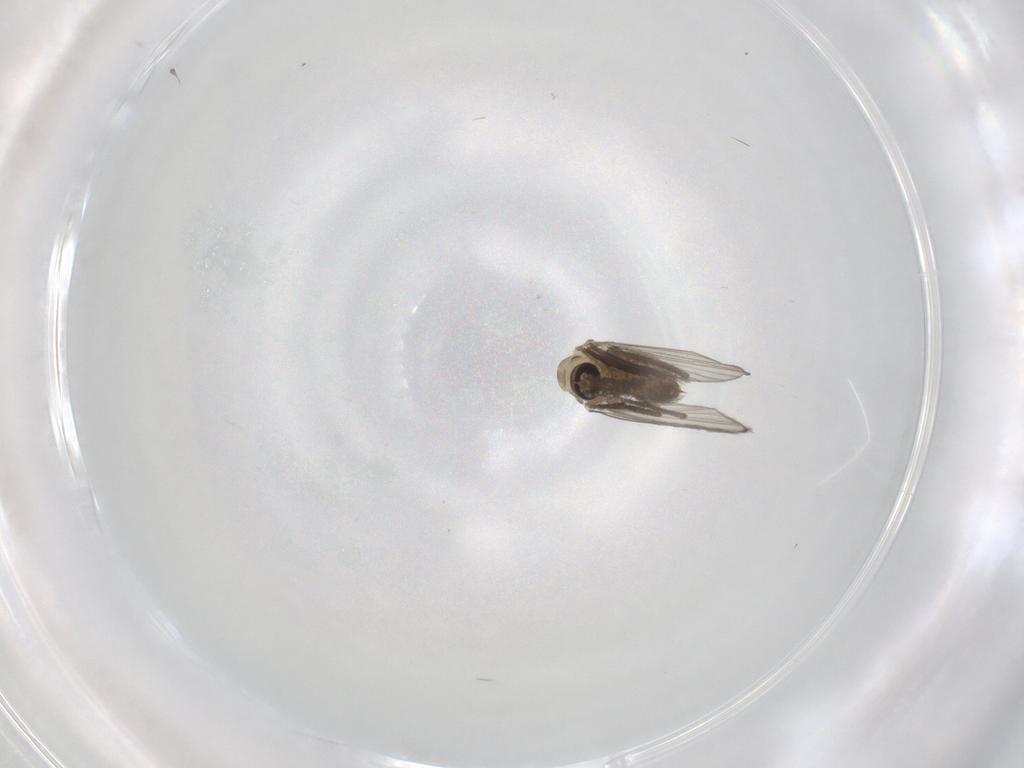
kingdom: Animalia
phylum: Arthropoda
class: Insecta
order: Diptera
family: Psychodidae
